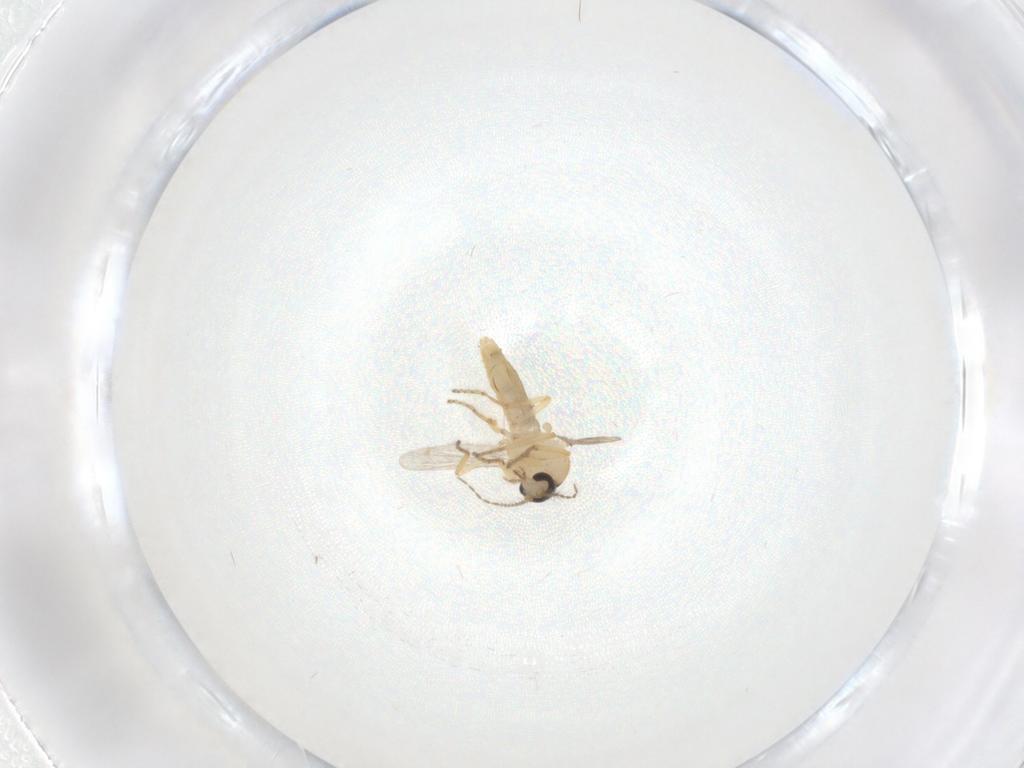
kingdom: Animalia
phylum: Arthropoda
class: Insecta
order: Diptera
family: Ceratopogonidae
